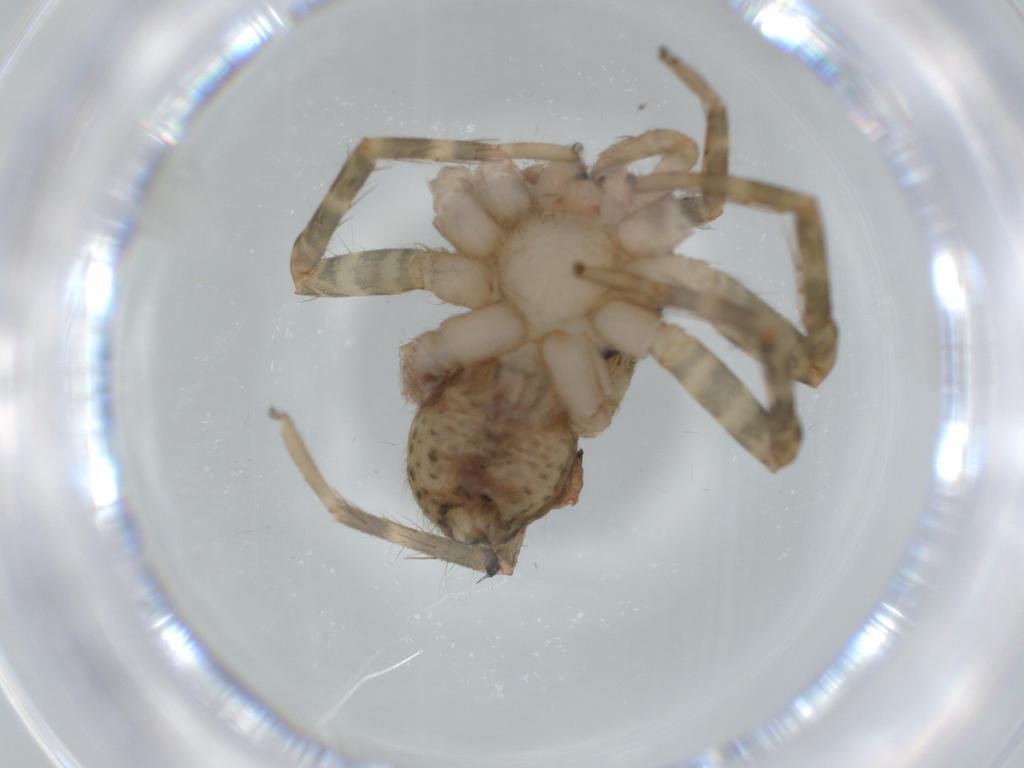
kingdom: Animalia
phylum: Arthropoda
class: Arachnida
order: Araneae
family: Ctenidae
